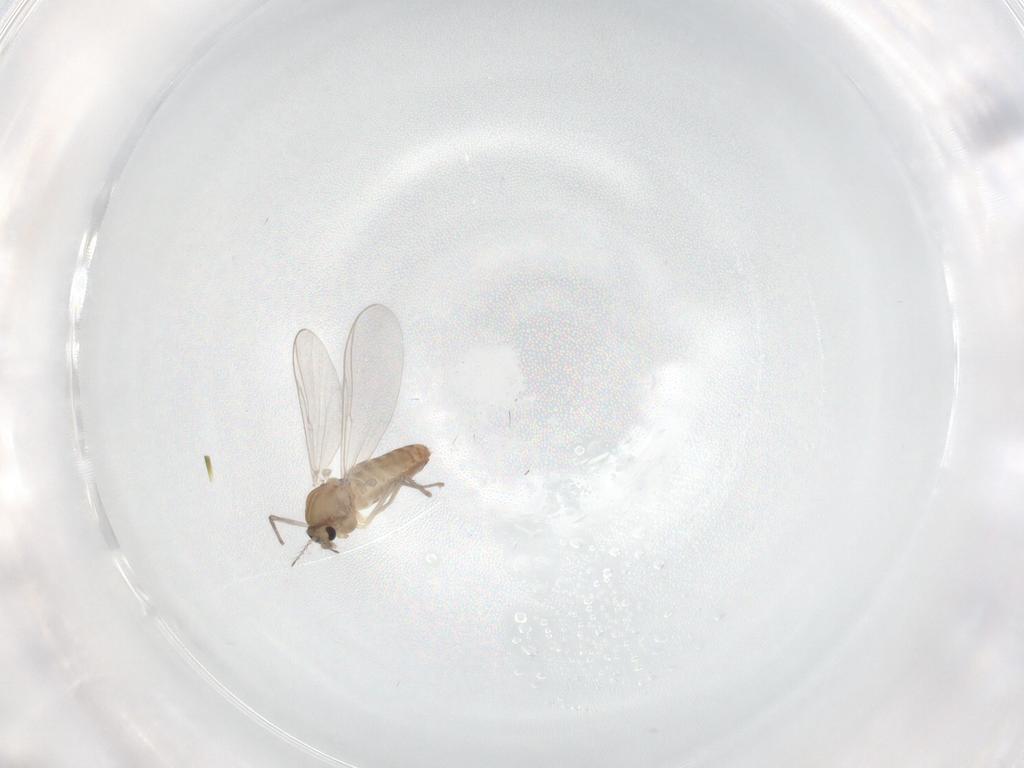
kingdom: Animalia
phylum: Arthropoda
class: Insecta
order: Diptera
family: Chironomidae
